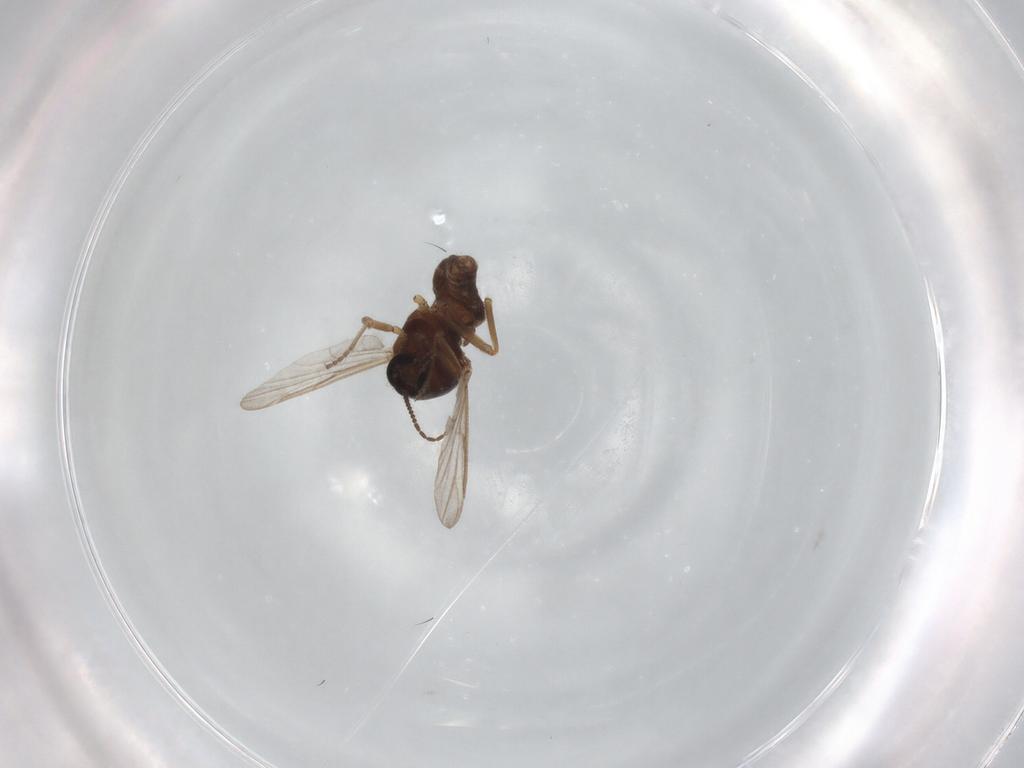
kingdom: Animalia
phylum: Arthropoda
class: Insecta
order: Diptera
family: Ceratopogonidae
